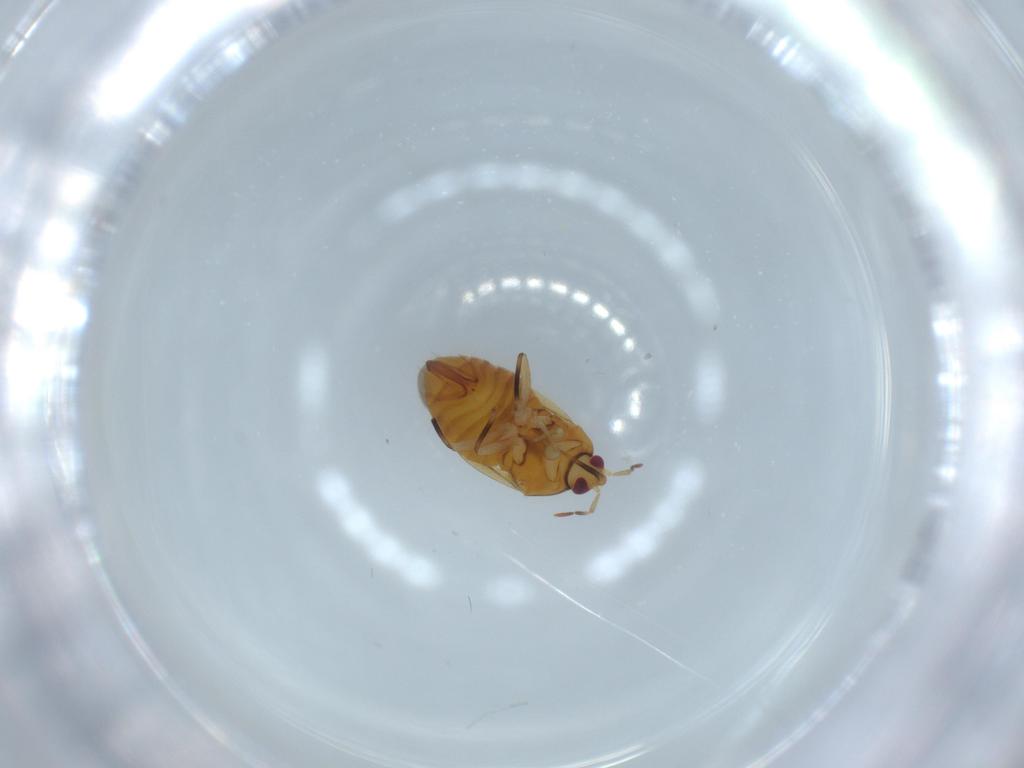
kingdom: Animalia
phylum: Arthropoda
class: Insecta
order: Hemiptera
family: Anthocoridae
